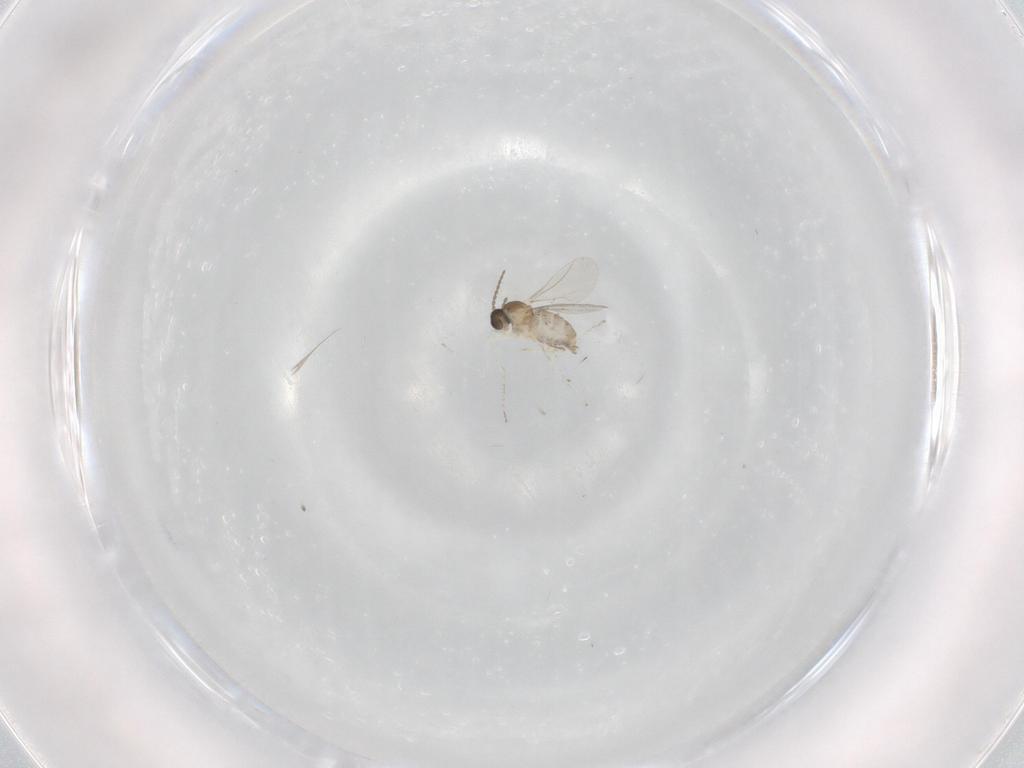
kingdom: Animalia
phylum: Arthropoda
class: Insecta
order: Diptera
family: Cecidomyiidae
